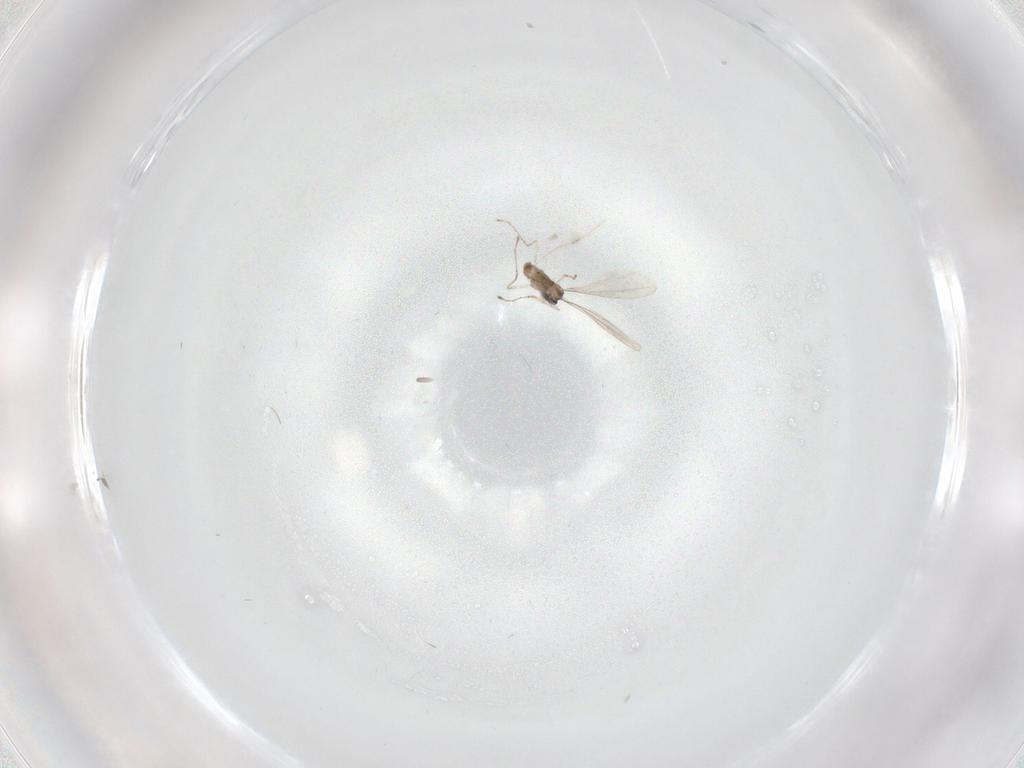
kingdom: Animalia
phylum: Arthropoda
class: Insecta
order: Diptera
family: Cecidomyiidae
